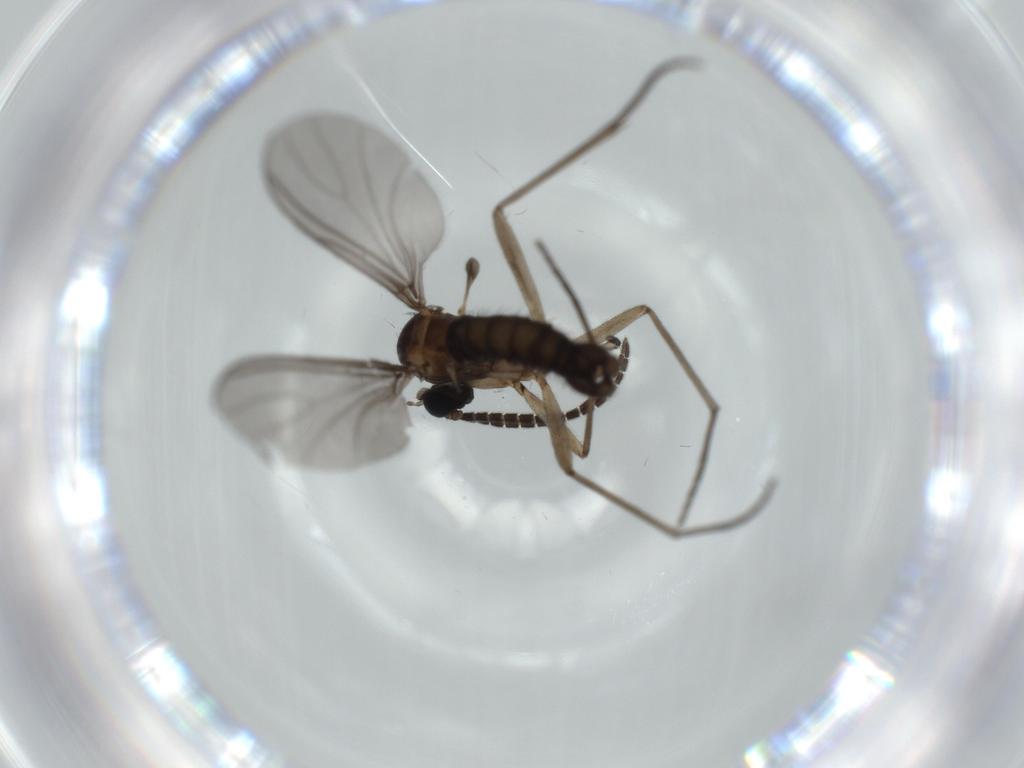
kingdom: Animalia
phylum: Arthropoda
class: Insecta
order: Diptera
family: Sciaridae
